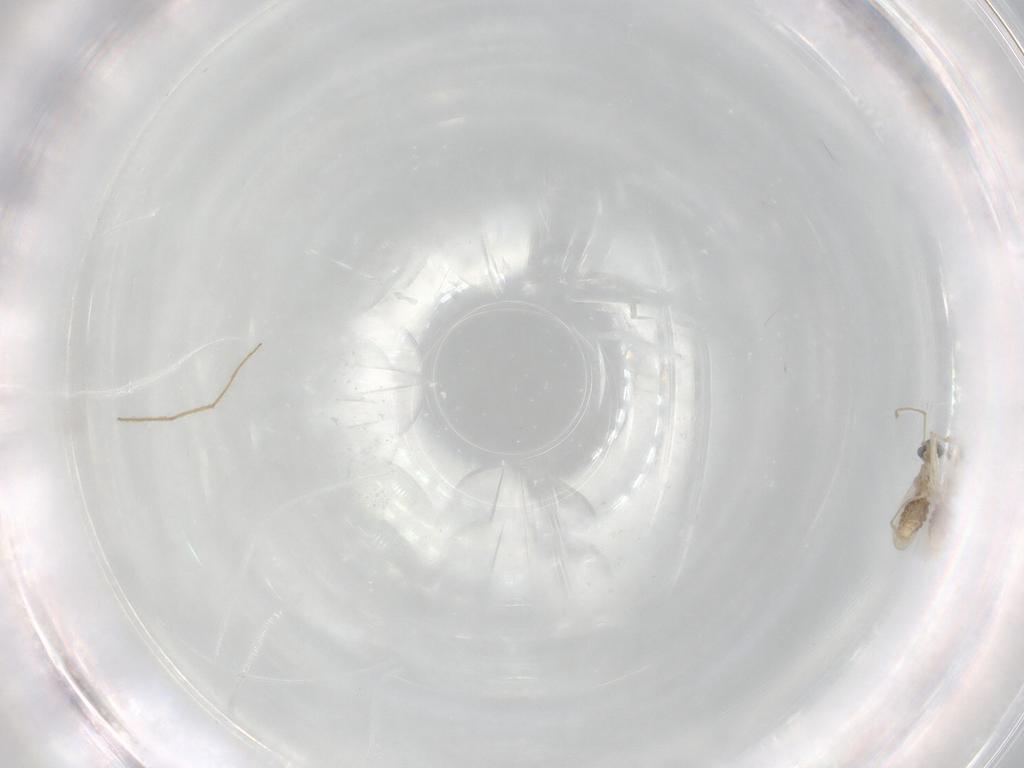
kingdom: Animalia
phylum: Arthropoda
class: Insecta
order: Diptera
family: Cecidomyiidae
